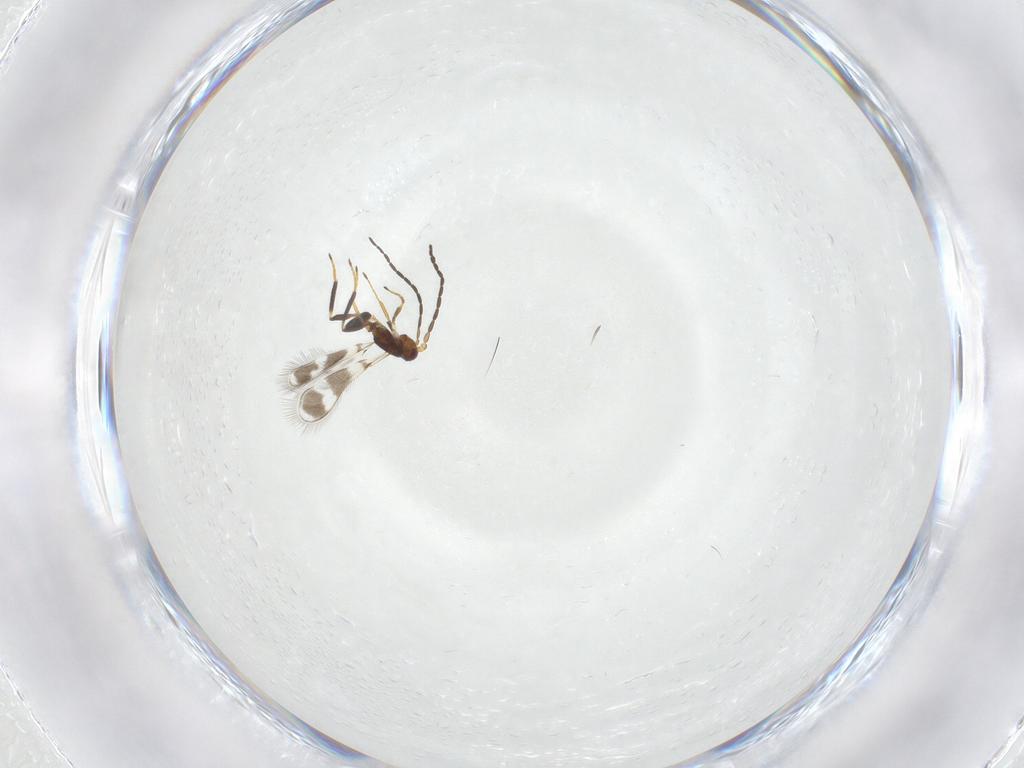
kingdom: Animalia
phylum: Arthropoda
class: Insecta
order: Hymenoptera
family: Mymaridae
